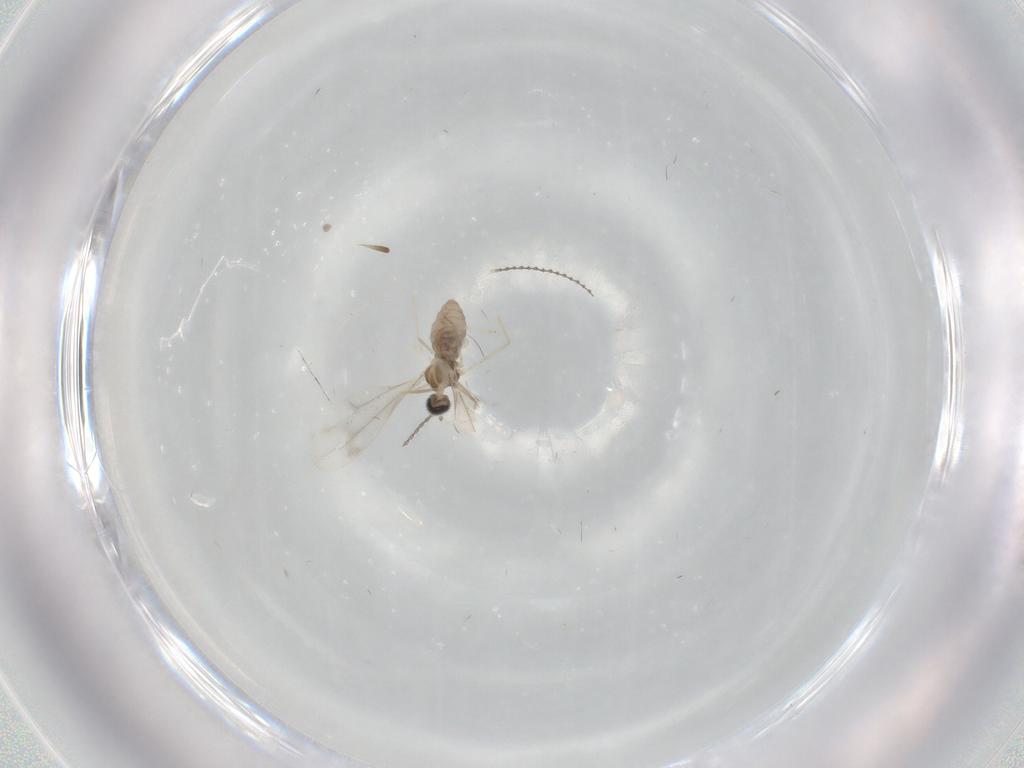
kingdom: Animalia
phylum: Arthropoda
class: Insecta
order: Diptera
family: Cecidomyiidae
